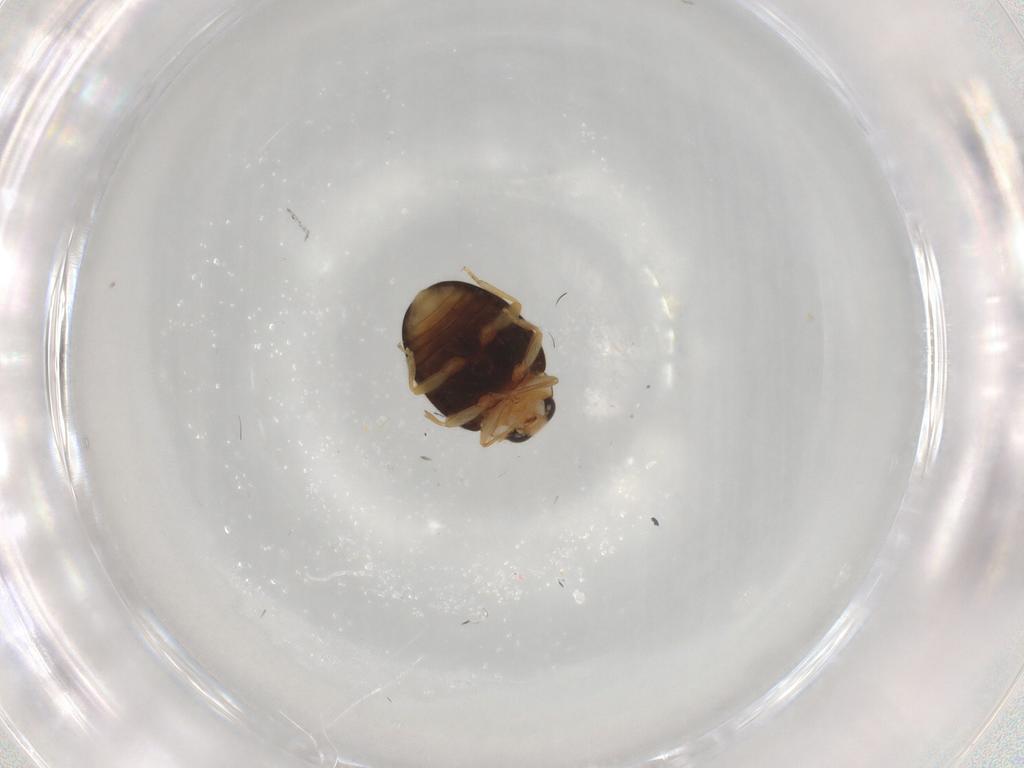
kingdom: Animalia
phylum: Arthropoda
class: Insecta
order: Coleoptera
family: Coccinellidae
